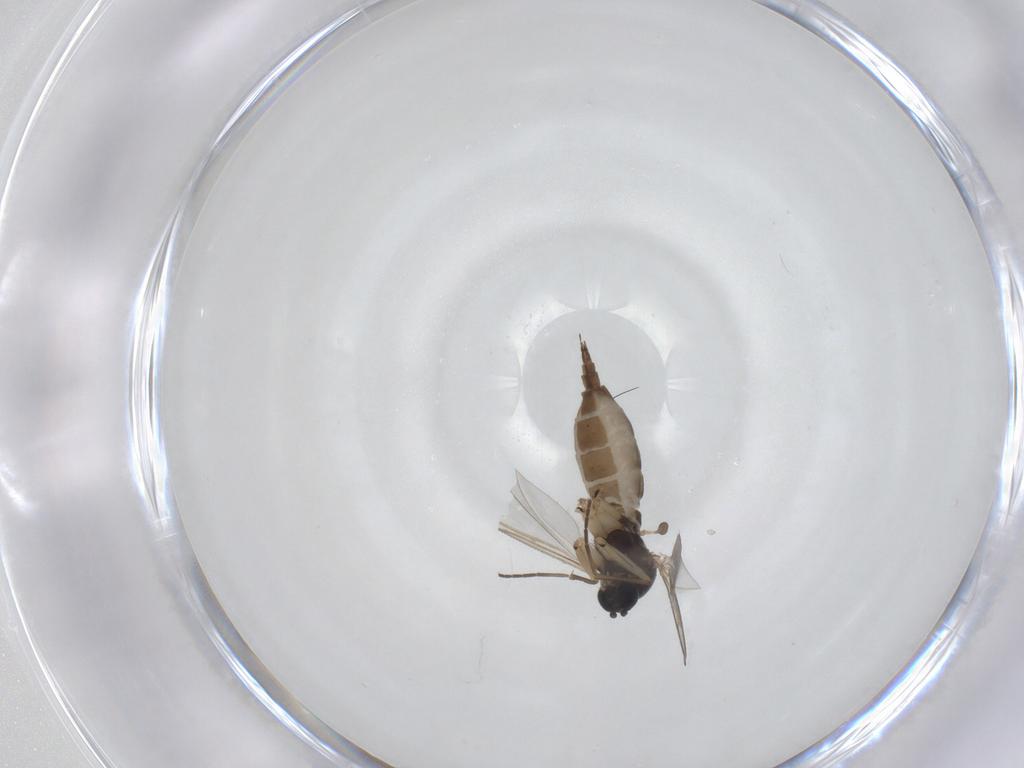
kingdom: Animalia
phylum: Arthropoda
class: Insecta
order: Diptera
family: Sciaridae
